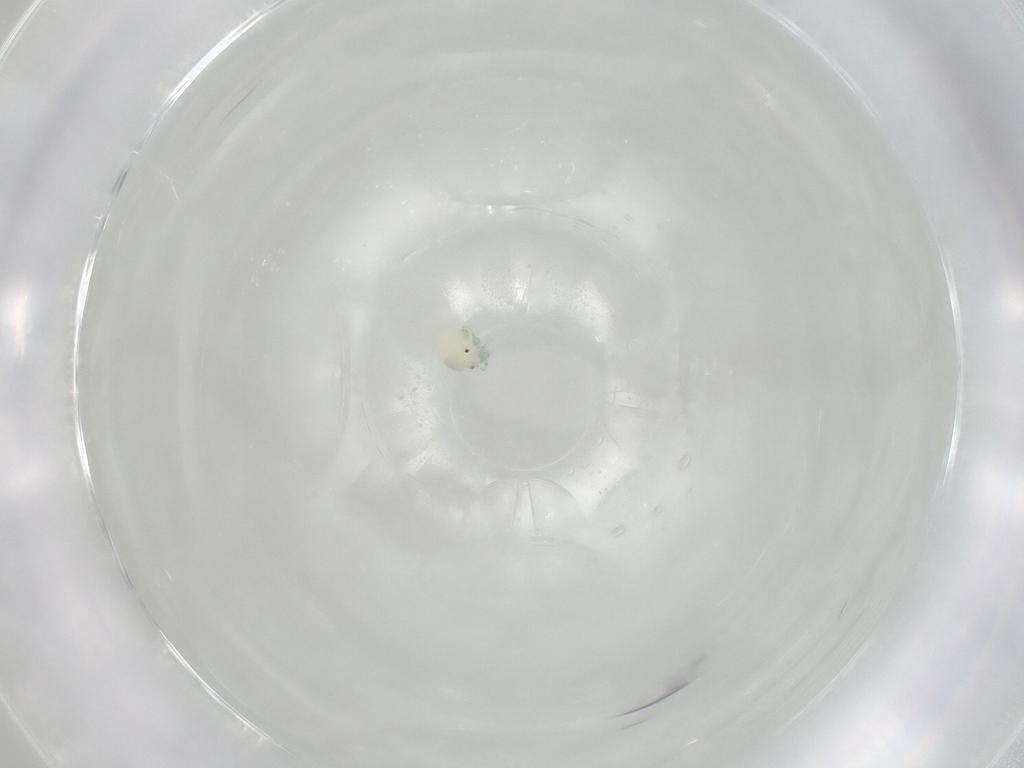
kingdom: Animalia
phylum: Arthropoda
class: Arachnida
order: Trombidiformes
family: Arrenuridae
